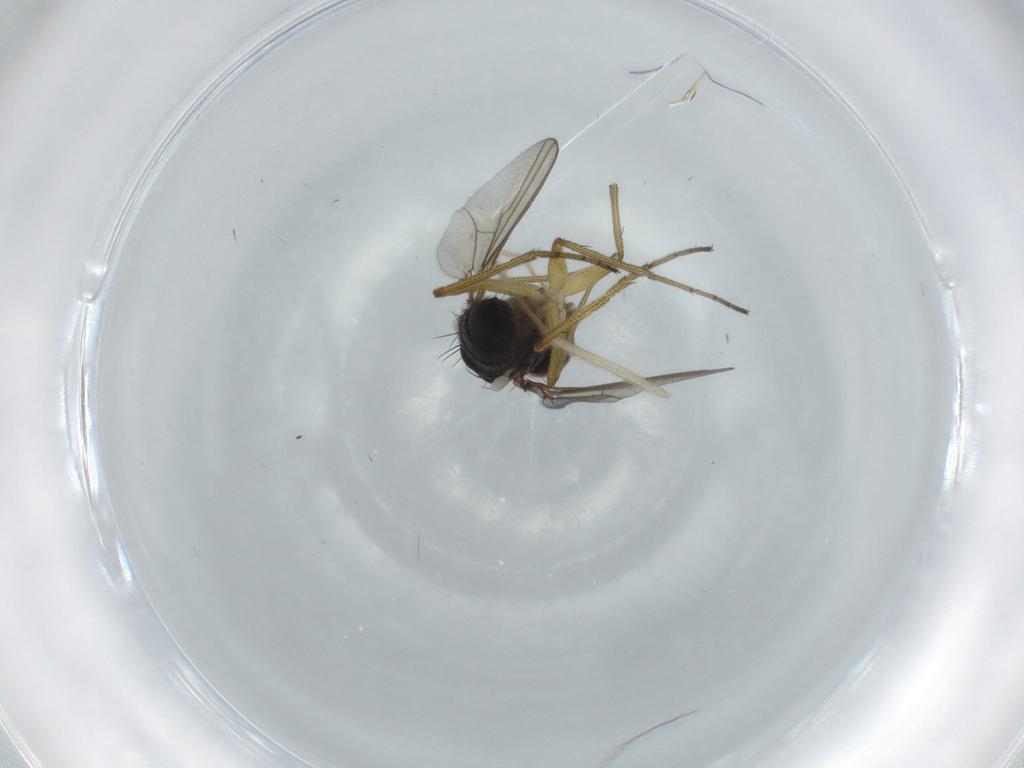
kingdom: Animalia
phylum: Arthropoda
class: Insecta
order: Diptera
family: Dolichopodidae
